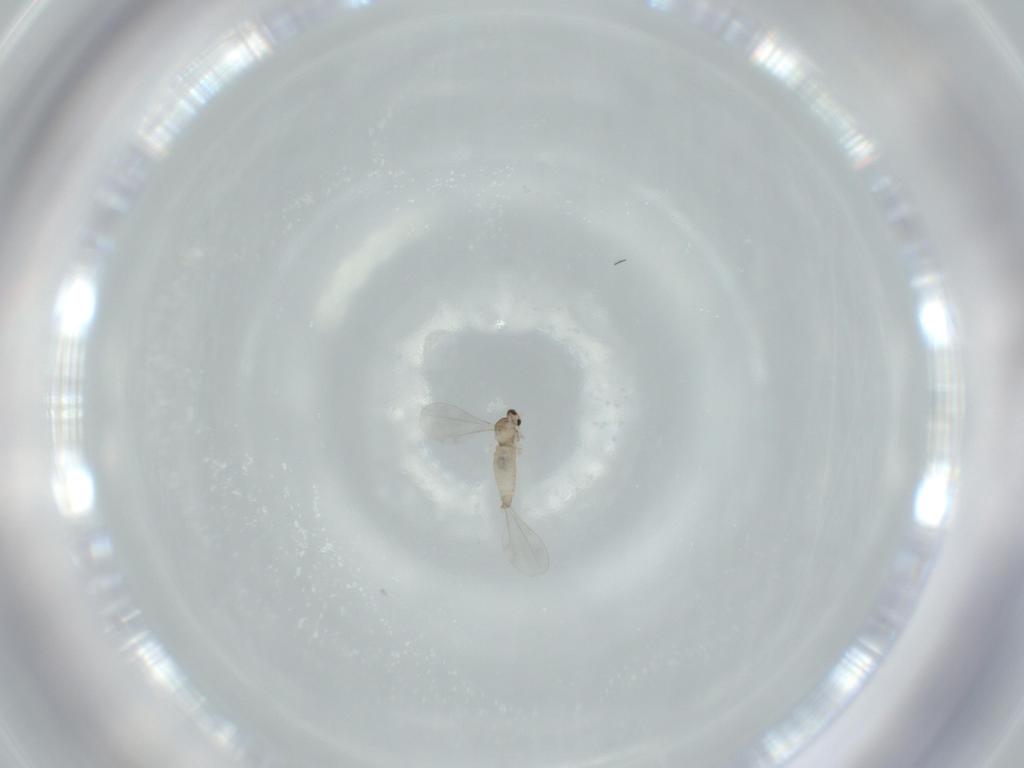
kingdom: Animalia
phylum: Arthropoda
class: Insecta
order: Diptera
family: Cecidomyiidae
